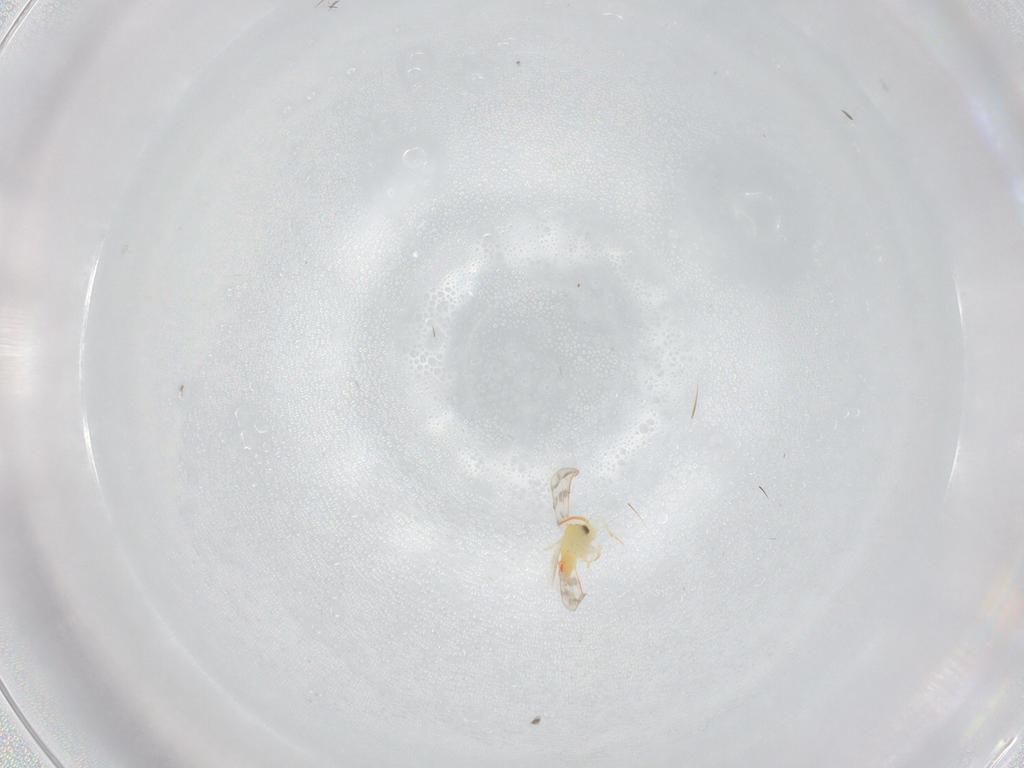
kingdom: Animalia
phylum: Arthropoda
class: Insecta
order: Hemiptera
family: Aleyrodidae
